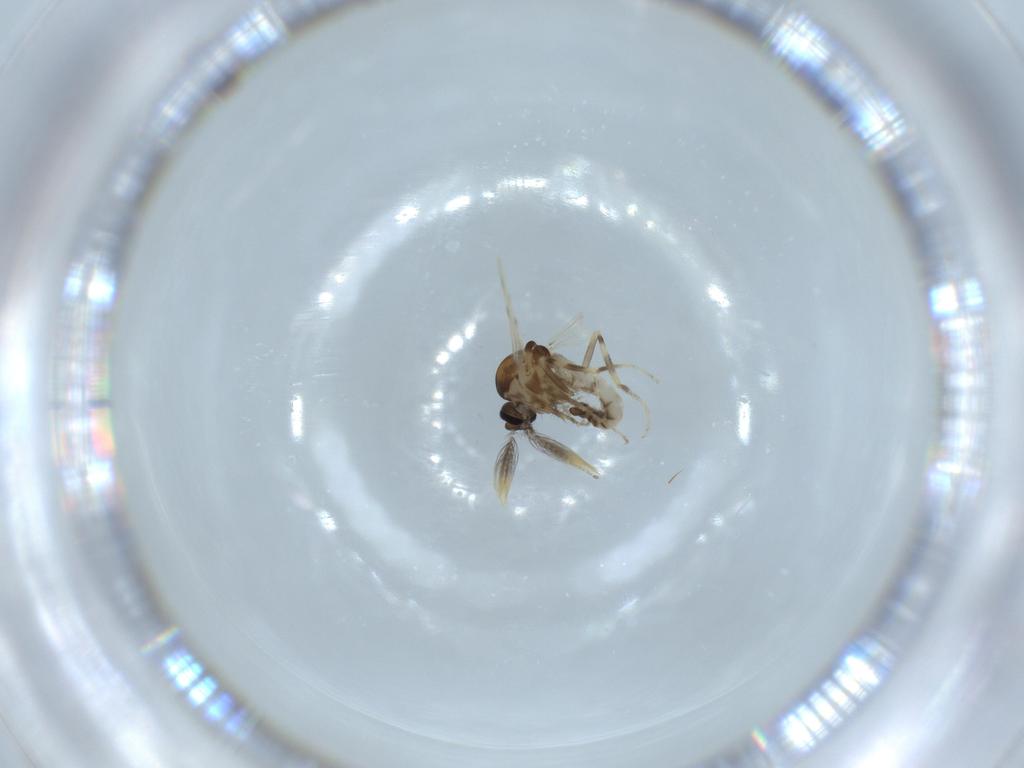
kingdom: Animalia
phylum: Arthropoda
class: Insecta
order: Diptera
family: Ceratopogonidae
